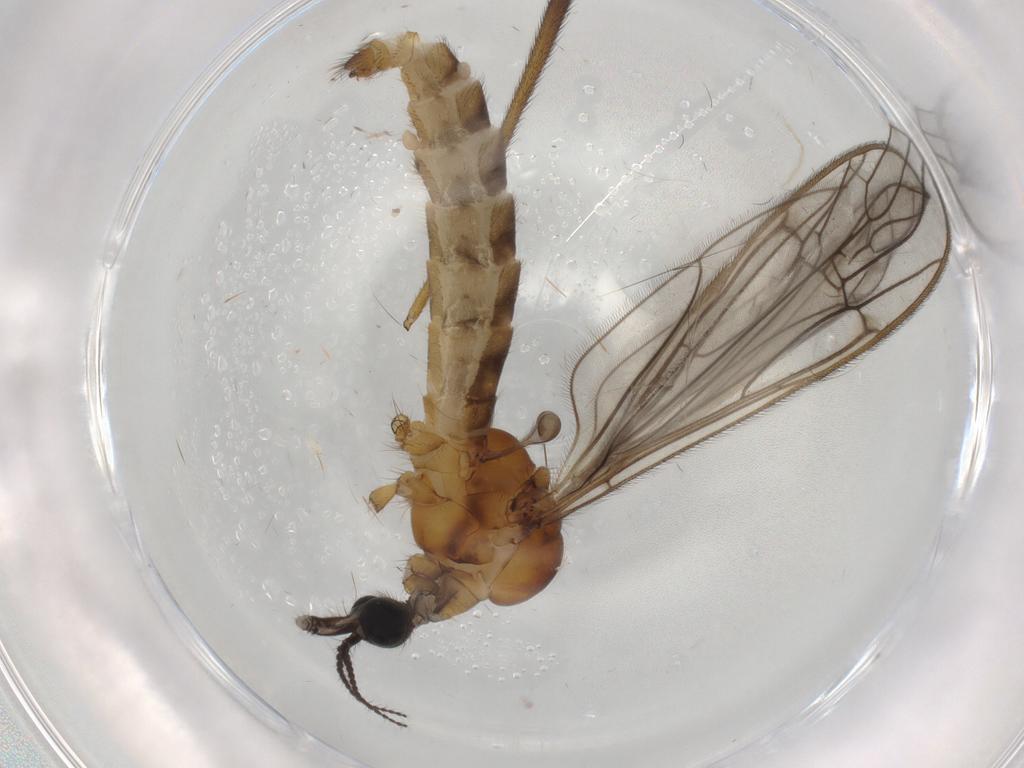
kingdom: Animalia
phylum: Arthropoda
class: Insecta
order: Diptera
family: Limoniidae
